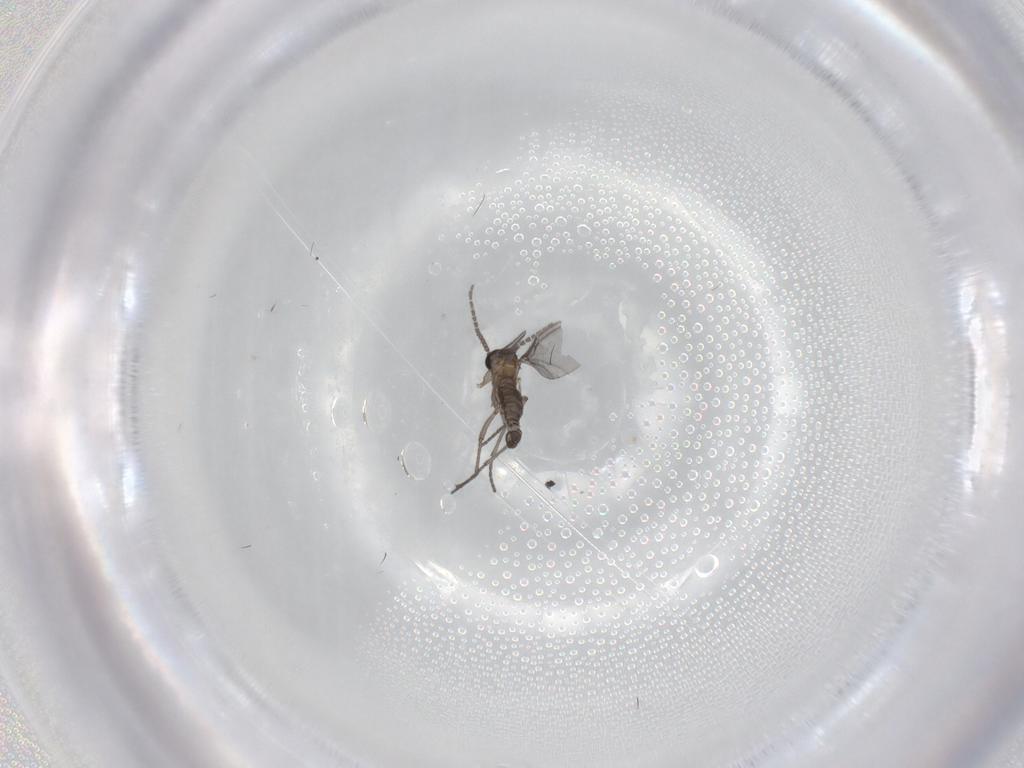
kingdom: Animalia
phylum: Arthropoda
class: Insecta
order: Diptera
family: Sciaridae
